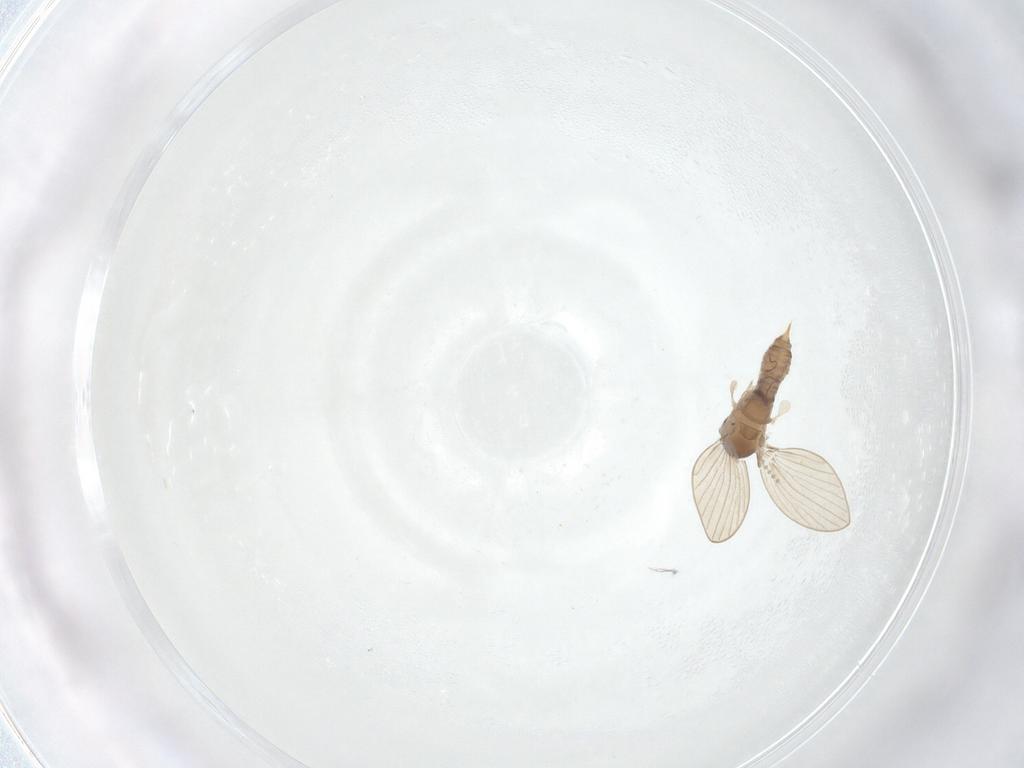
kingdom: Animalia
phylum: Arthropoda
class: Insecta
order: Diptera
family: Psychodidae
